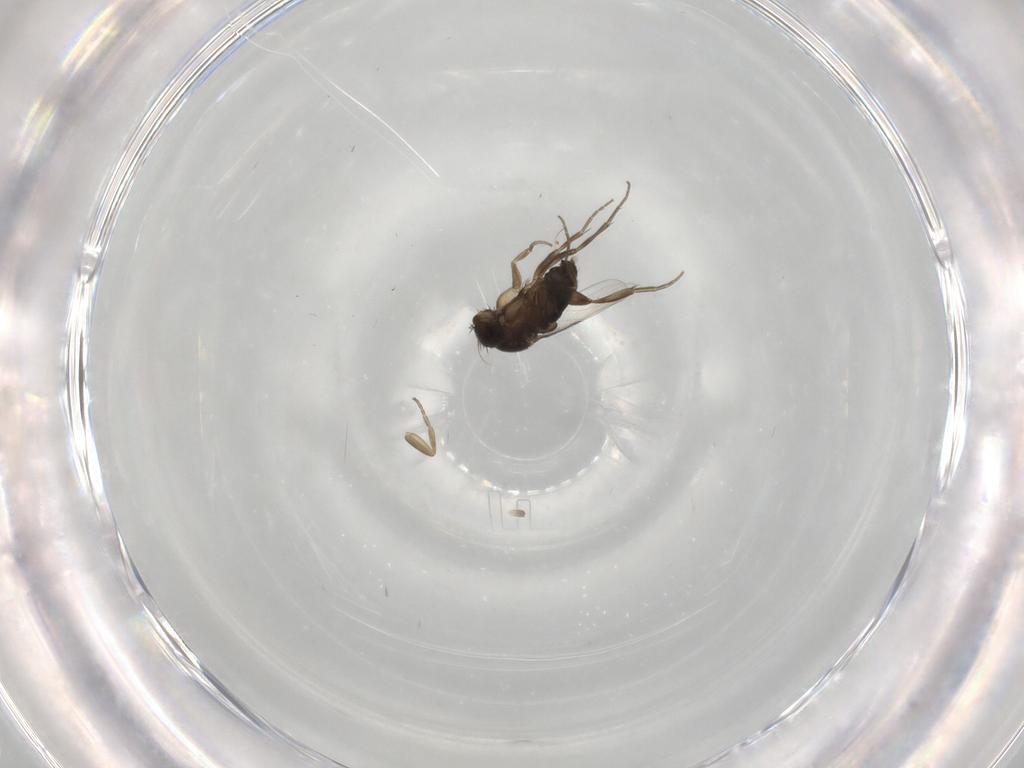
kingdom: Animalia
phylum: Arthropoda
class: Insecta
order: Diptera
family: Phoridae
